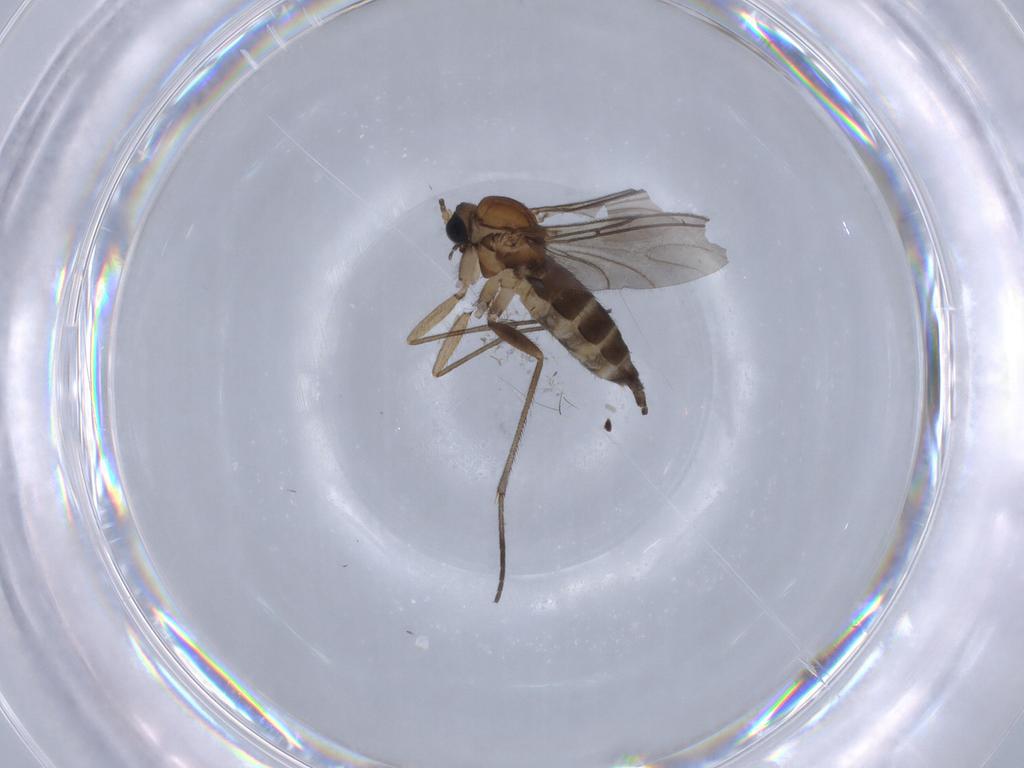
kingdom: Animalia
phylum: Arthropoda
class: Insecta
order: Diptera
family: Sciaridae
